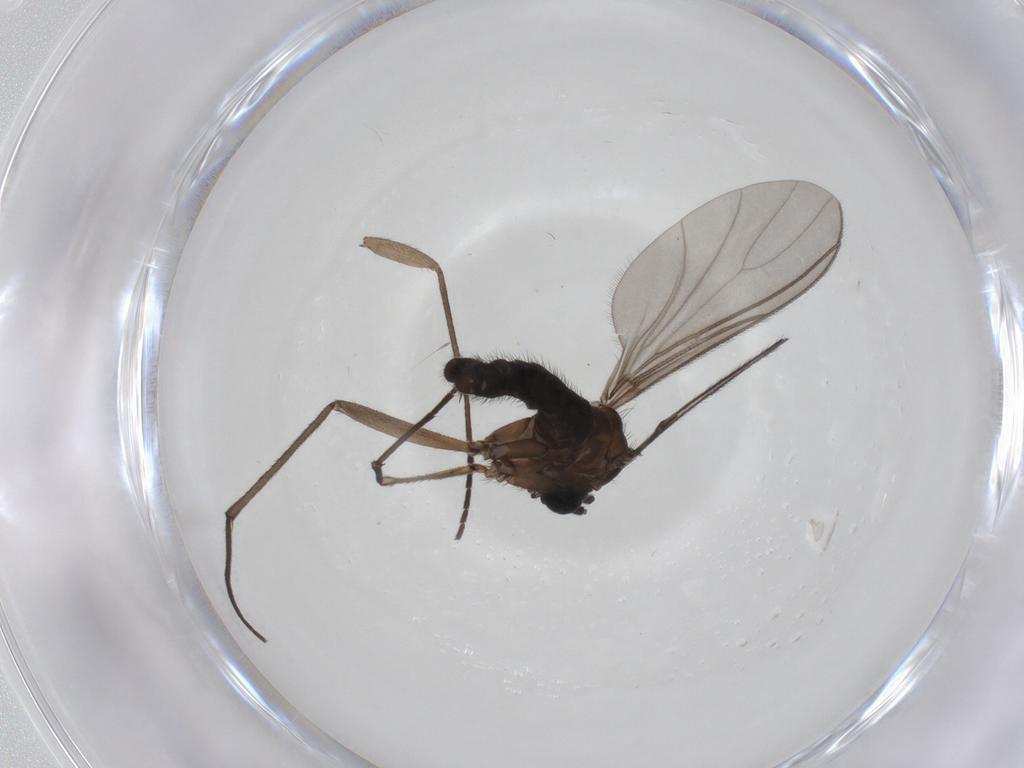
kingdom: Animalia
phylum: Arthropoda
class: Insecta
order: Diptera
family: Sciaridae
